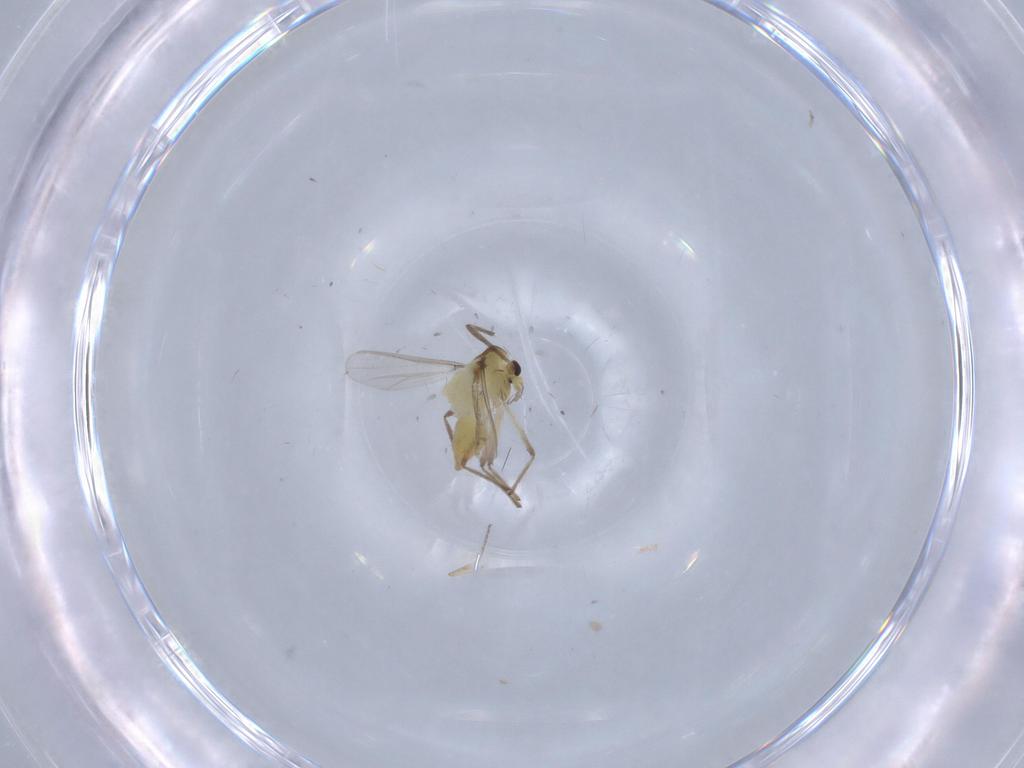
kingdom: Animalia
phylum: Arthropoda
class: Insecta
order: Diptera
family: Chironomidae
